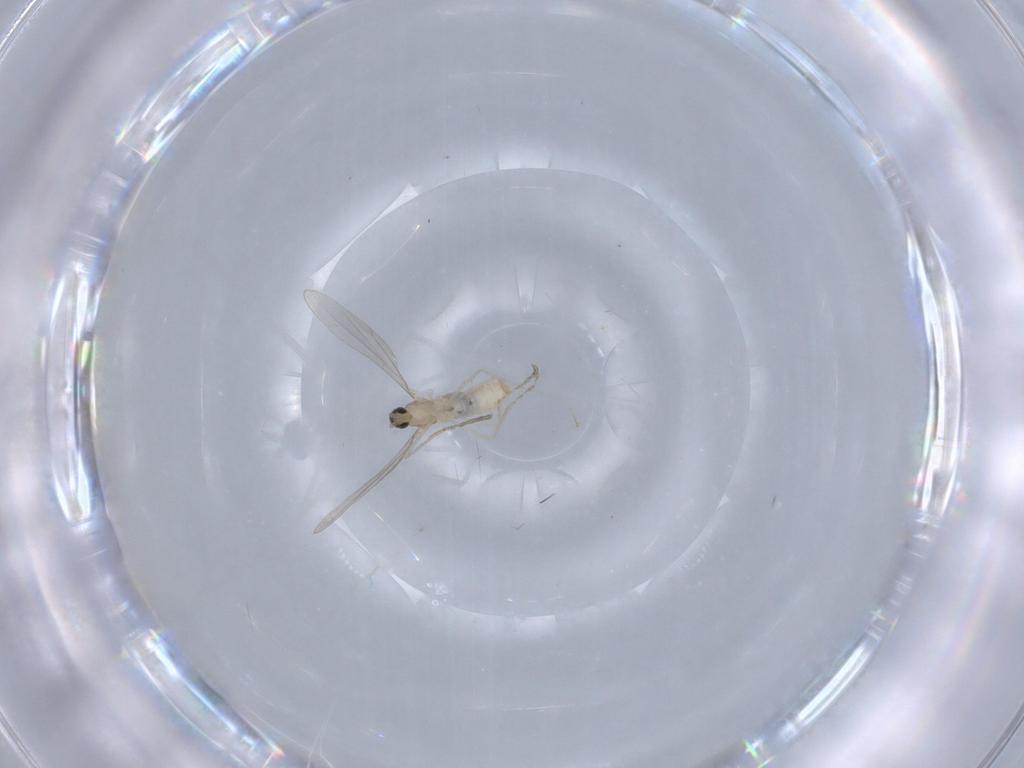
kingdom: Animalia
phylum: Arthropoda
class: Insecta
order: Diptera
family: Cecidomyiidae
